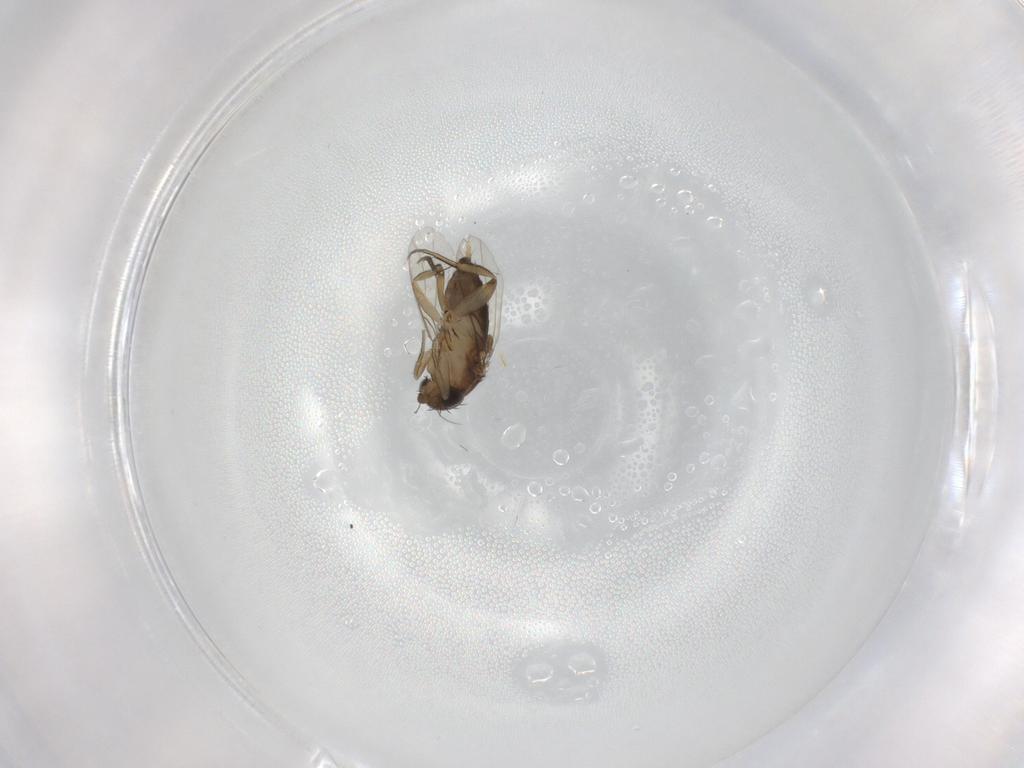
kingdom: Animalia
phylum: Arthropoda
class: Insecta
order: Diptera
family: Phoridae
